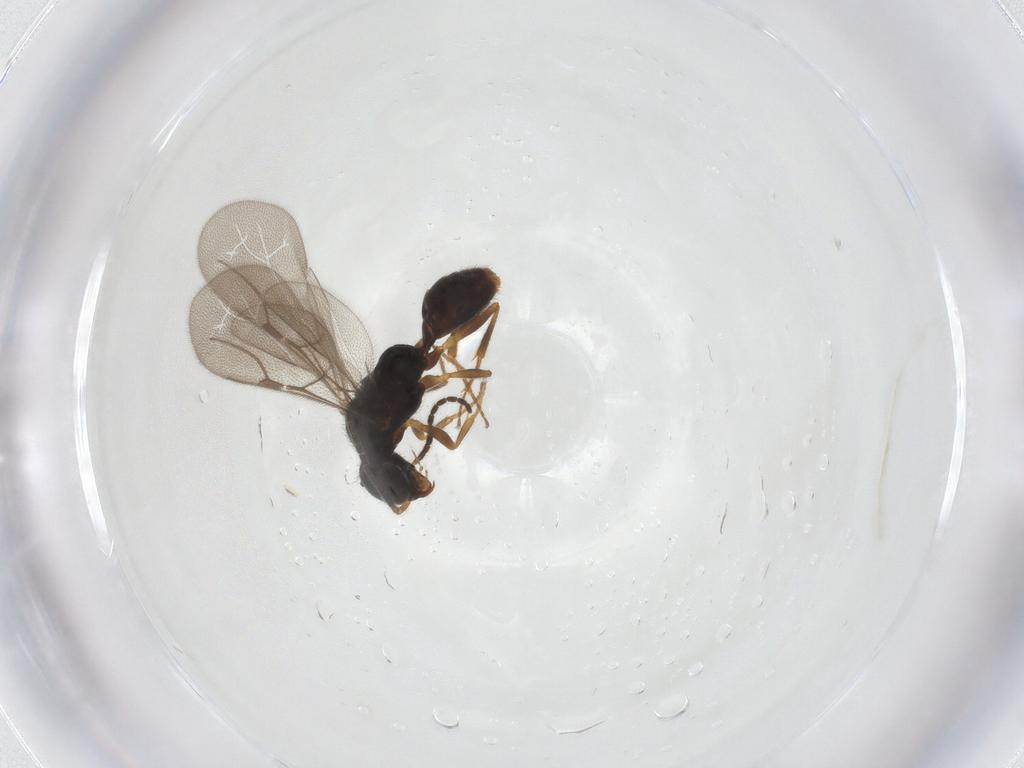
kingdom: Animalia
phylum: Arthropoda
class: Insecta
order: Hymenoptera
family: Bethylidae
